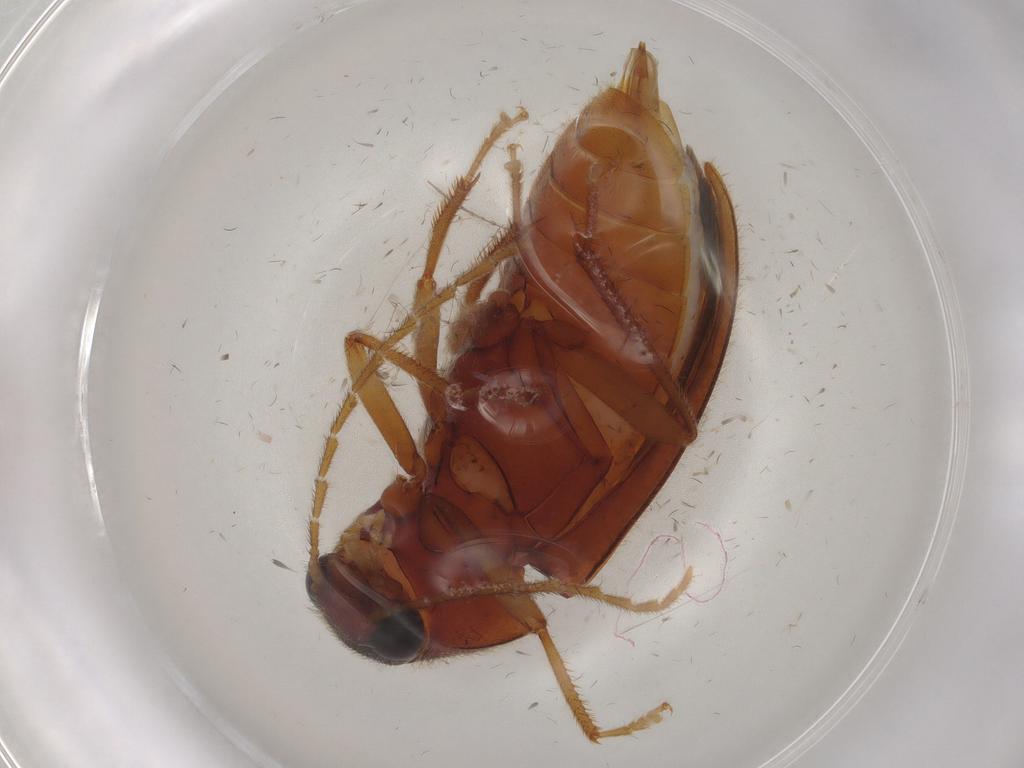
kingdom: Animalia
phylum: Arthropoda
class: Insecta
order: Coleoptera
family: Ptilodactylidae
